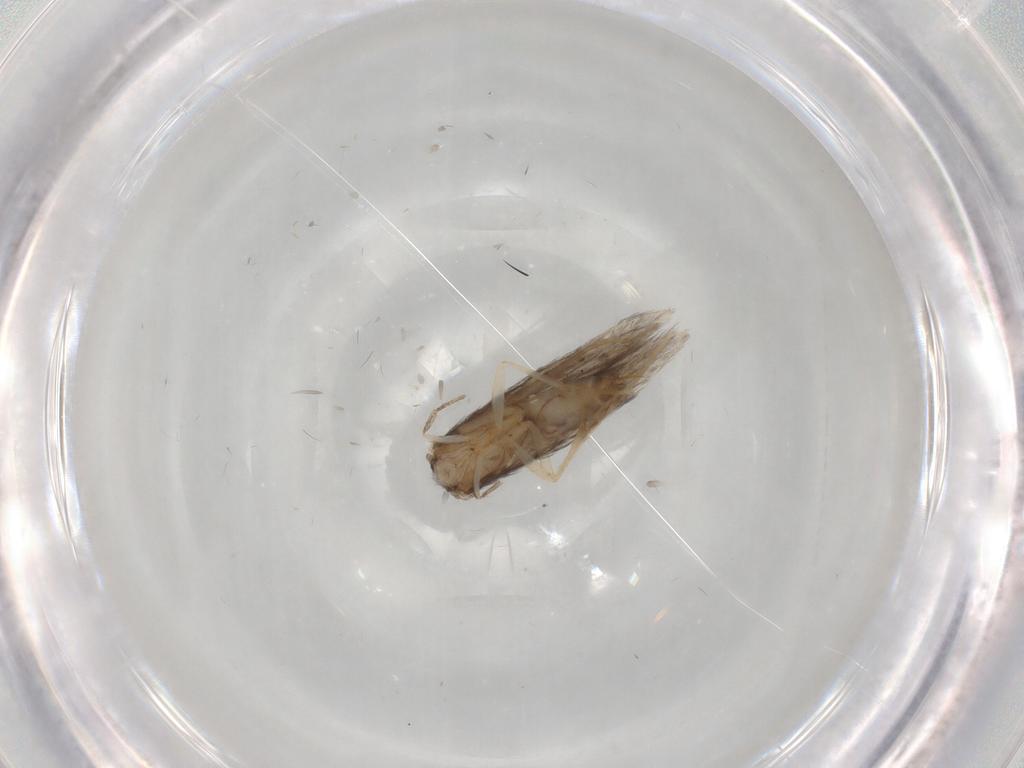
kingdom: Animalia
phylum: Arthropoda
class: Insecta
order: Trichoptera
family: Hydroptilidae
